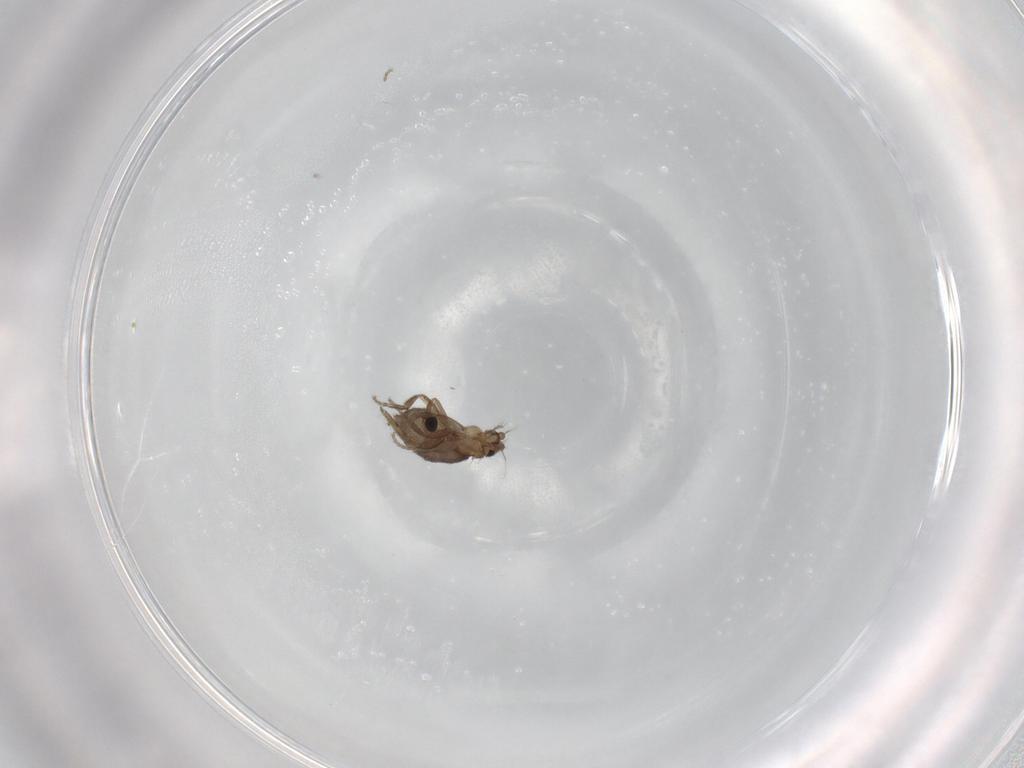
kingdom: Animalia
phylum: Arthropoda
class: Insecta
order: Diptera
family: Phoridae
